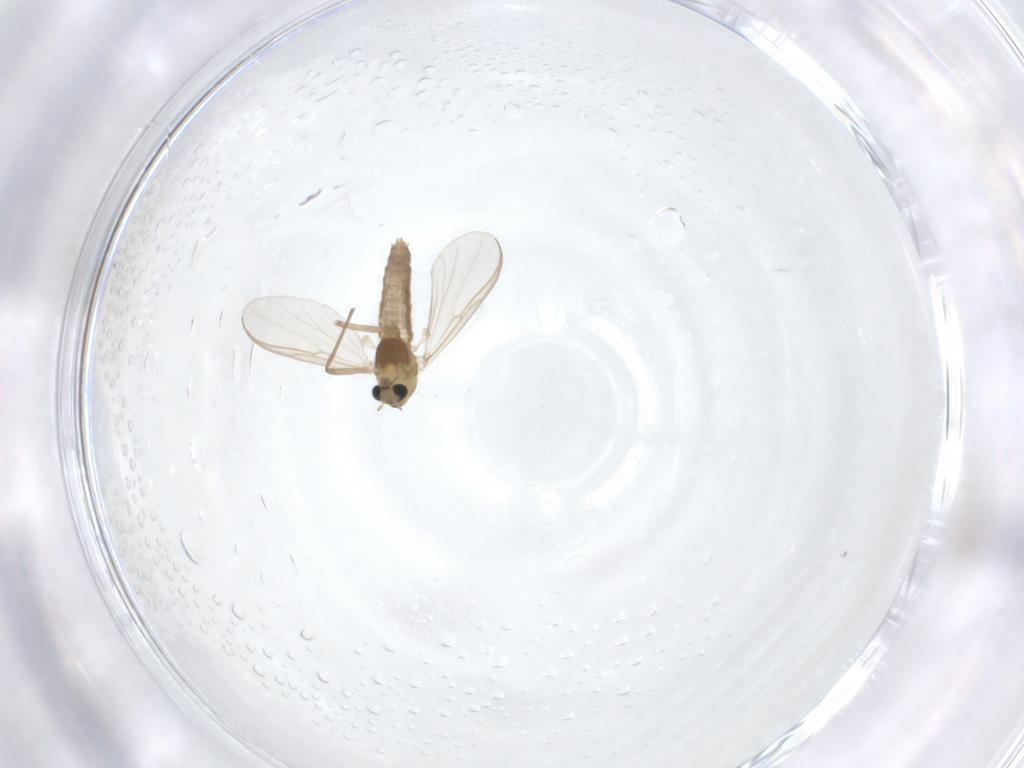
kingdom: Animalia
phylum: Arthropoda
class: Insecta
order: Diptera
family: Chironomidae
